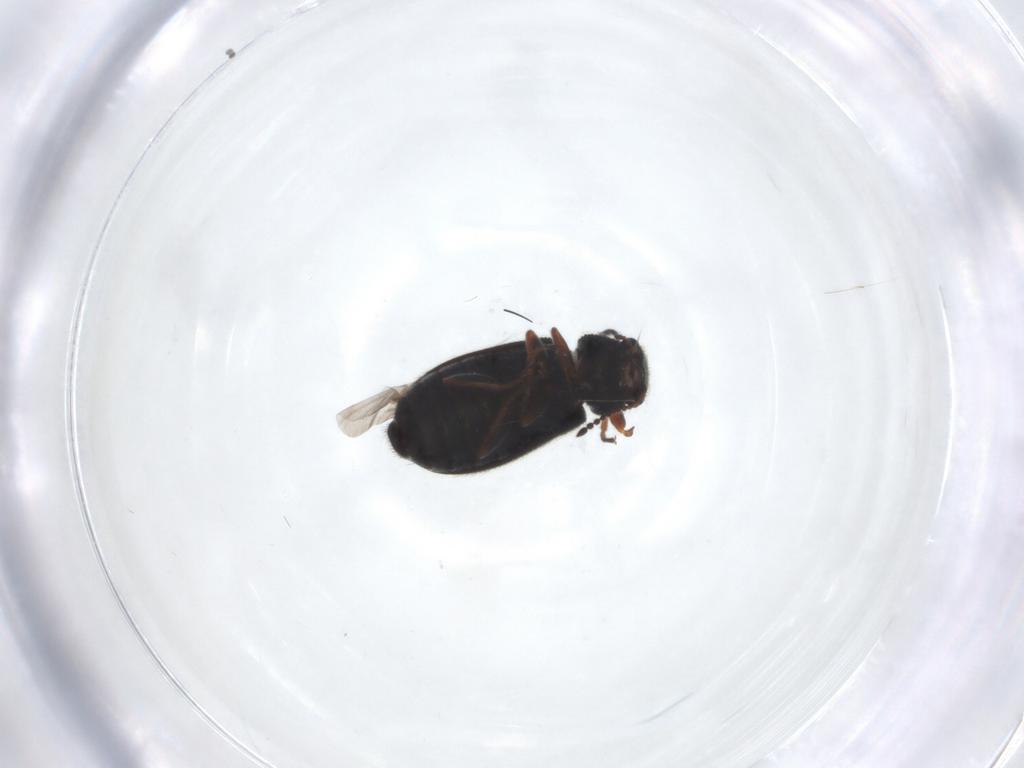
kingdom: Animalia
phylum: Arthropoda
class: Insecta
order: Coleoptera
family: Melyridae
